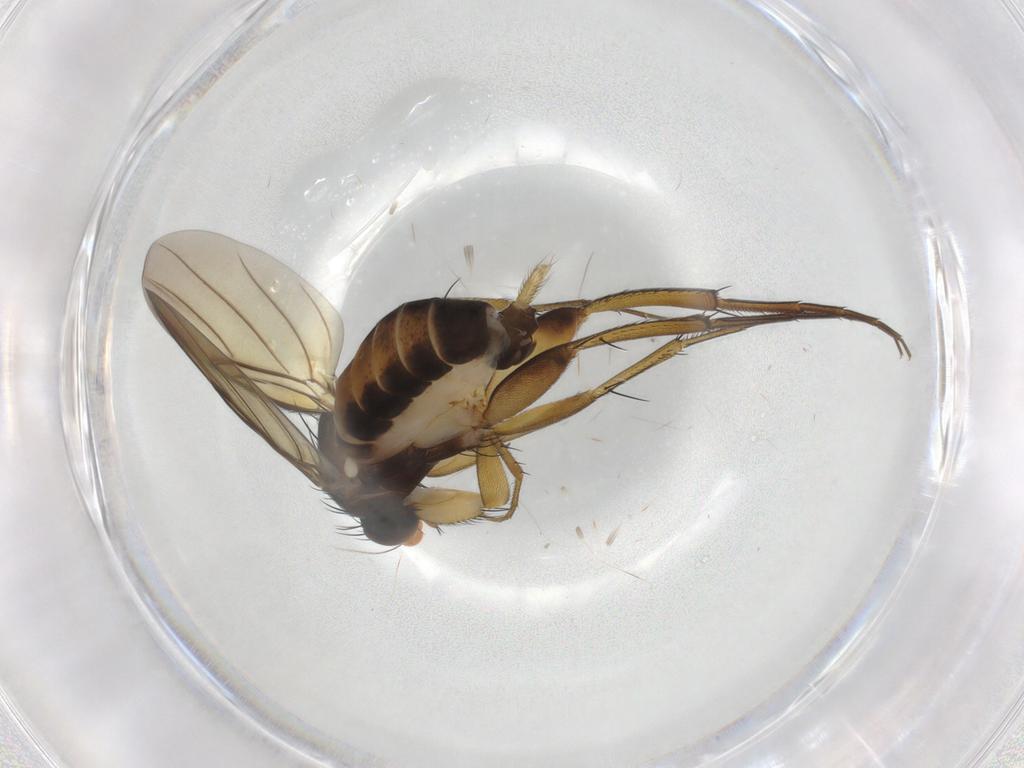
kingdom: Animalia
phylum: Arthropoda
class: Insecta
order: Diptera
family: Phoridae
